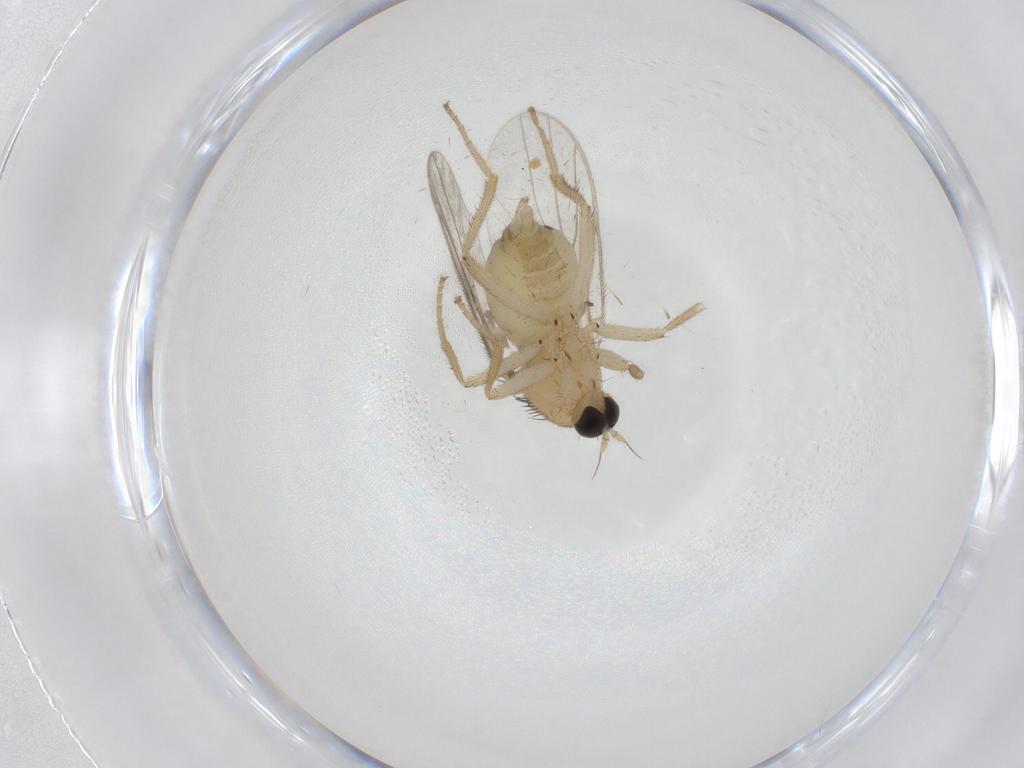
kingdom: Animalia
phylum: Arthropoda
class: Insecta
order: Diptera
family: Hybotidae
